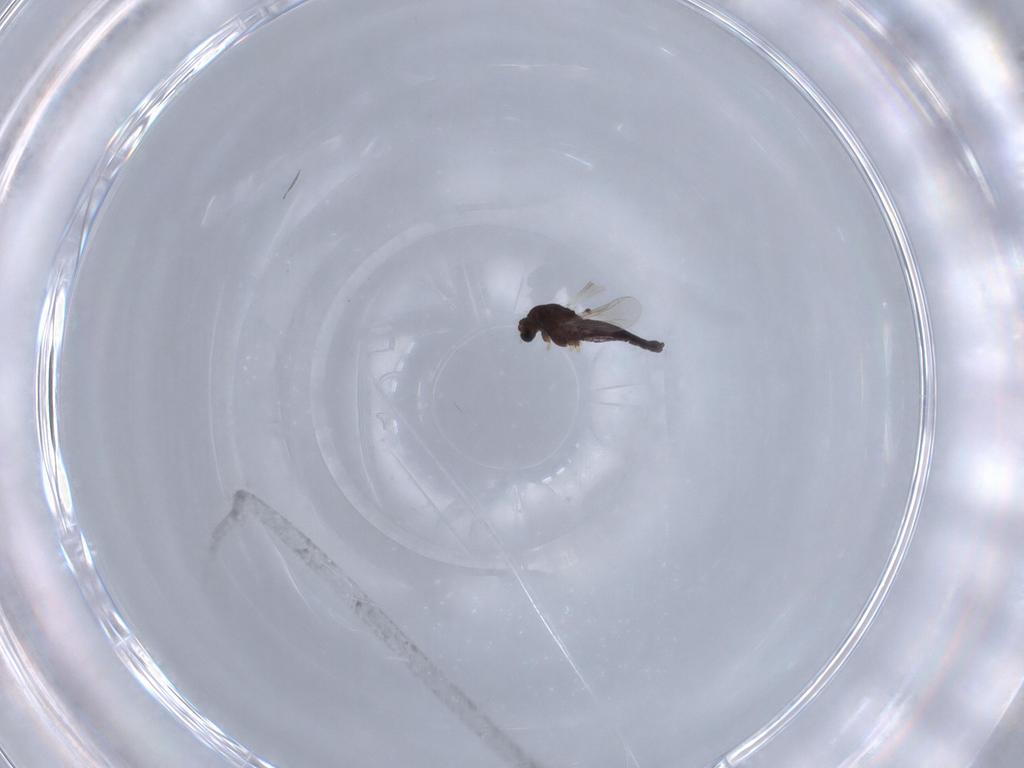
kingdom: Animalia
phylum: Arthropoda
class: Insecta
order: Diptera
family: Chironomidae
